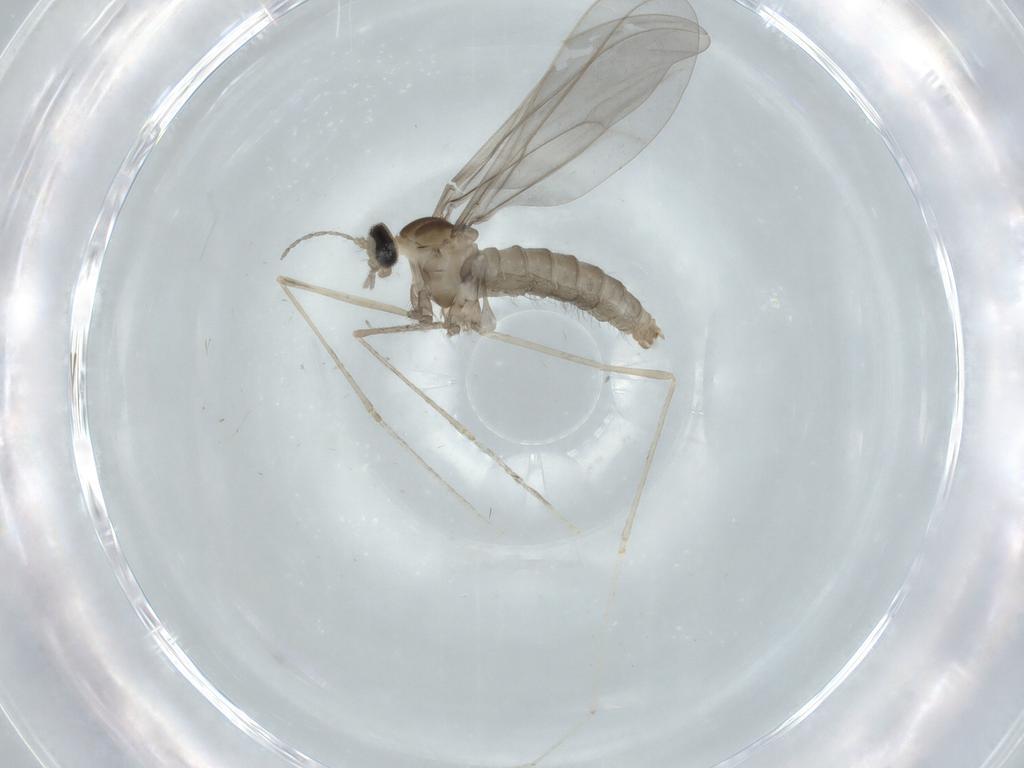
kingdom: Animalia
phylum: Arthropoda
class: Insecta
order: Diptera
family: Cecidomyiidae
